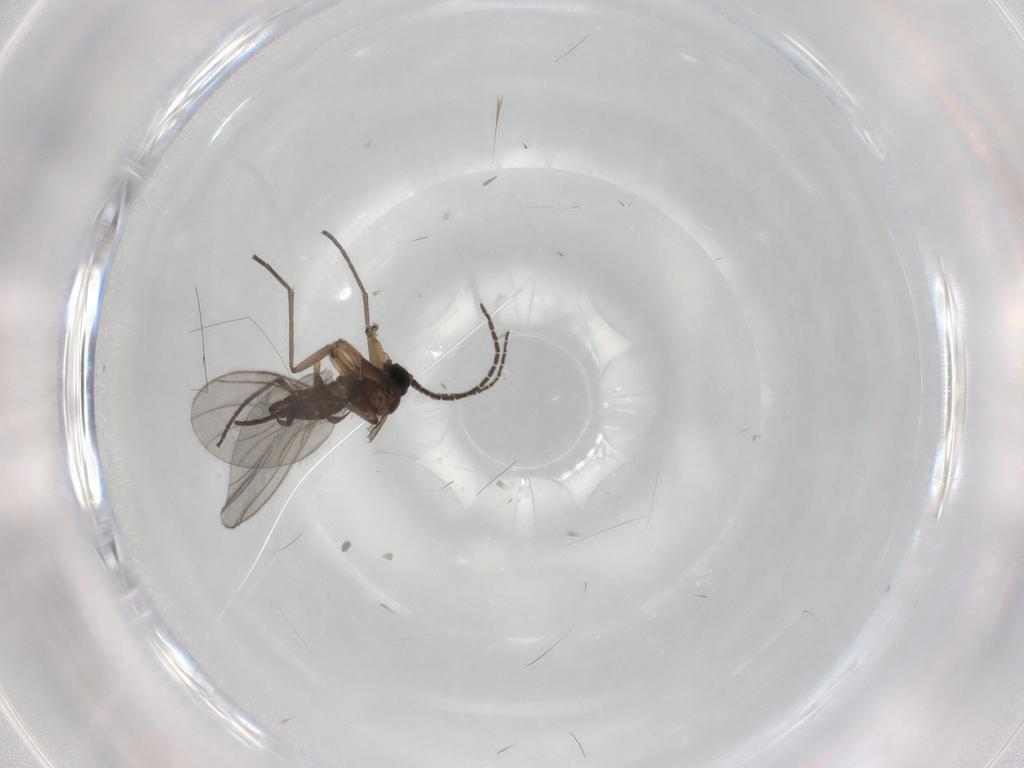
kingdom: Animalia
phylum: Arthropoda
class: Insecta
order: Diptera
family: Sciaridae
